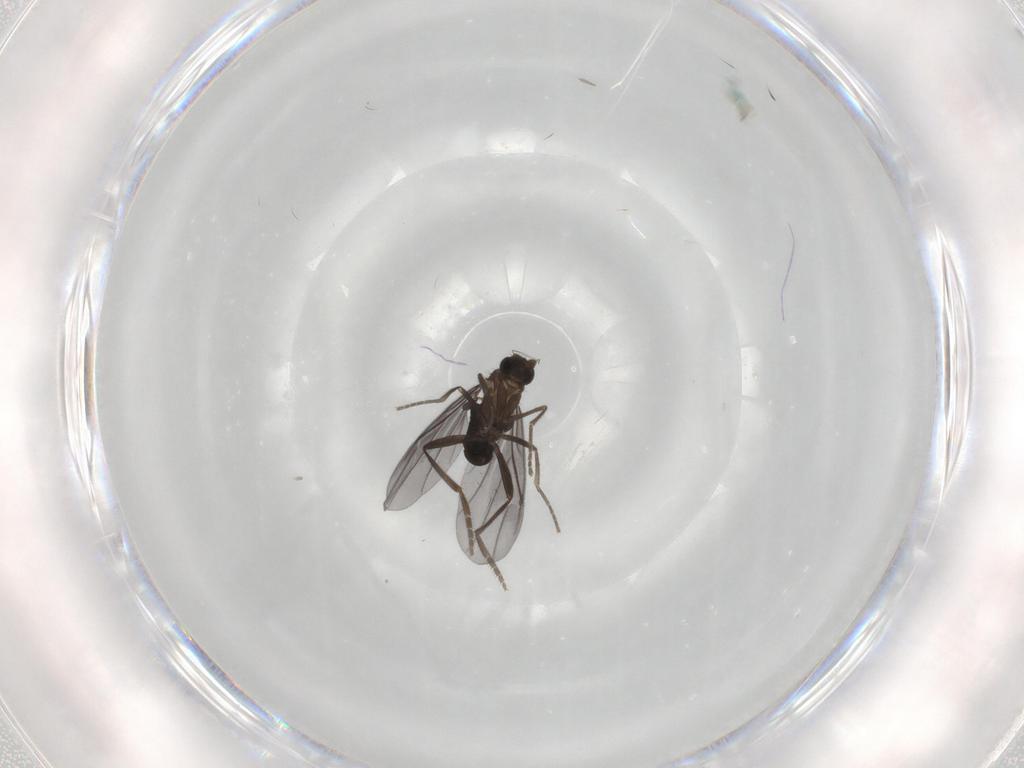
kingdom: Animalia
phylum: Arthropoda
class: Insecta
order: Diptera
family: Phoridae
